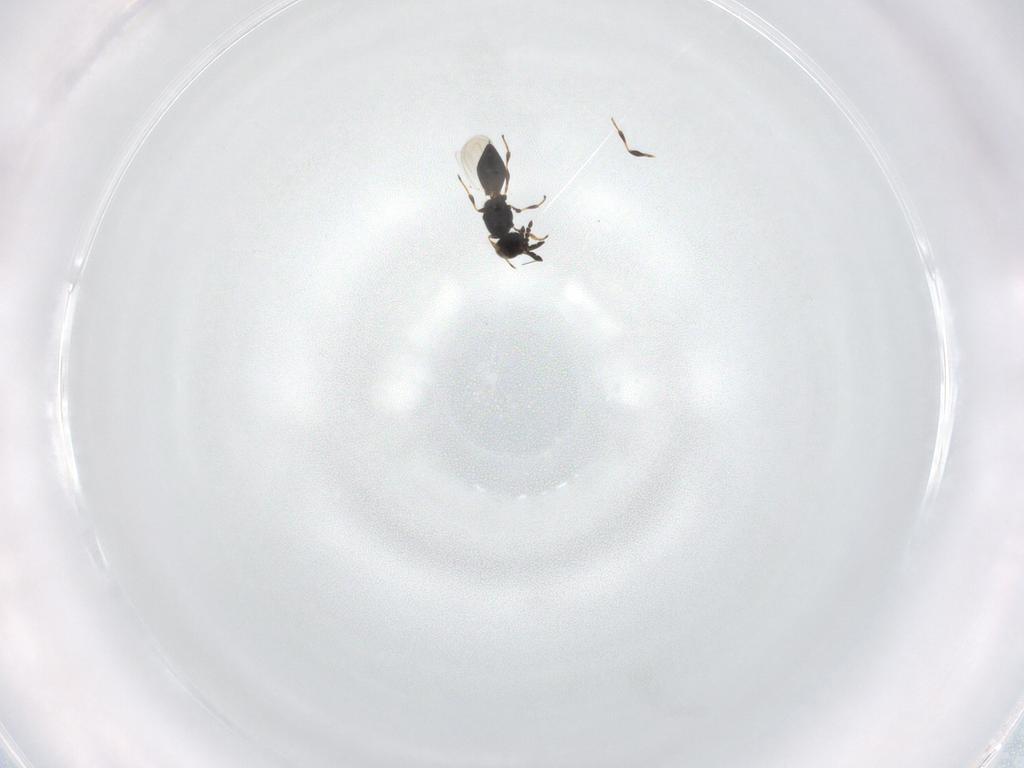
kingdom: Animalia
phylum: Arthropoda
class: Insecta
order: Hymenoptera
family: Platygastridae
